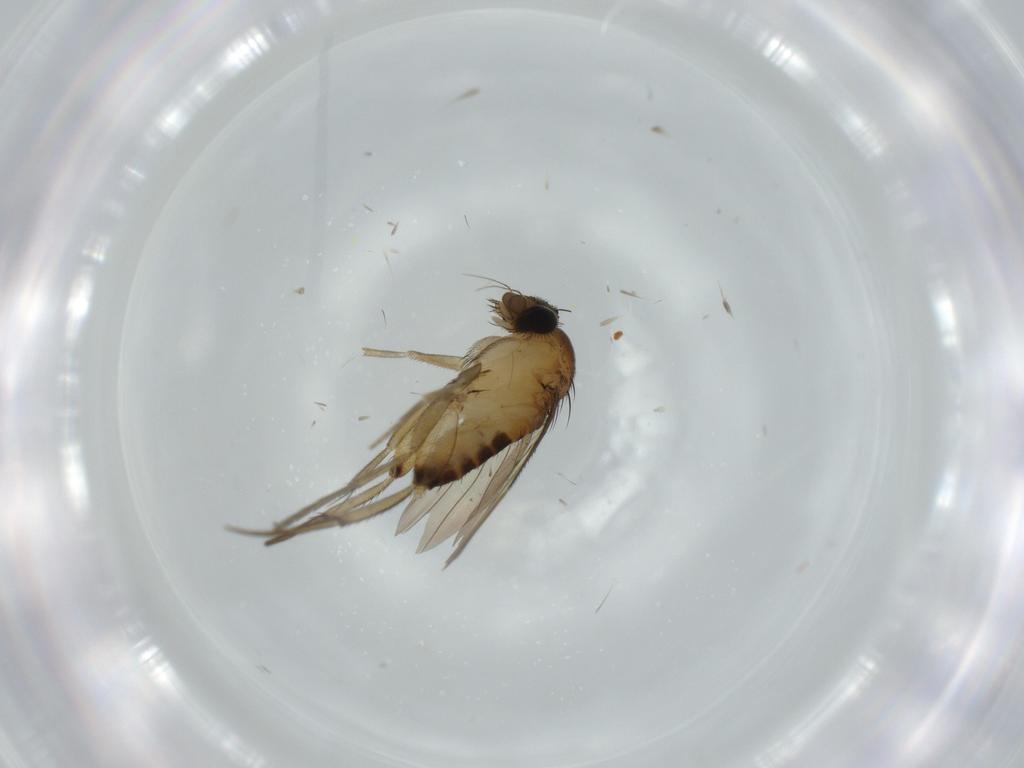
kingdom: Animalia
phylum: Arthropoda
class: Insecta
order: Diptera
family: Phoridae
